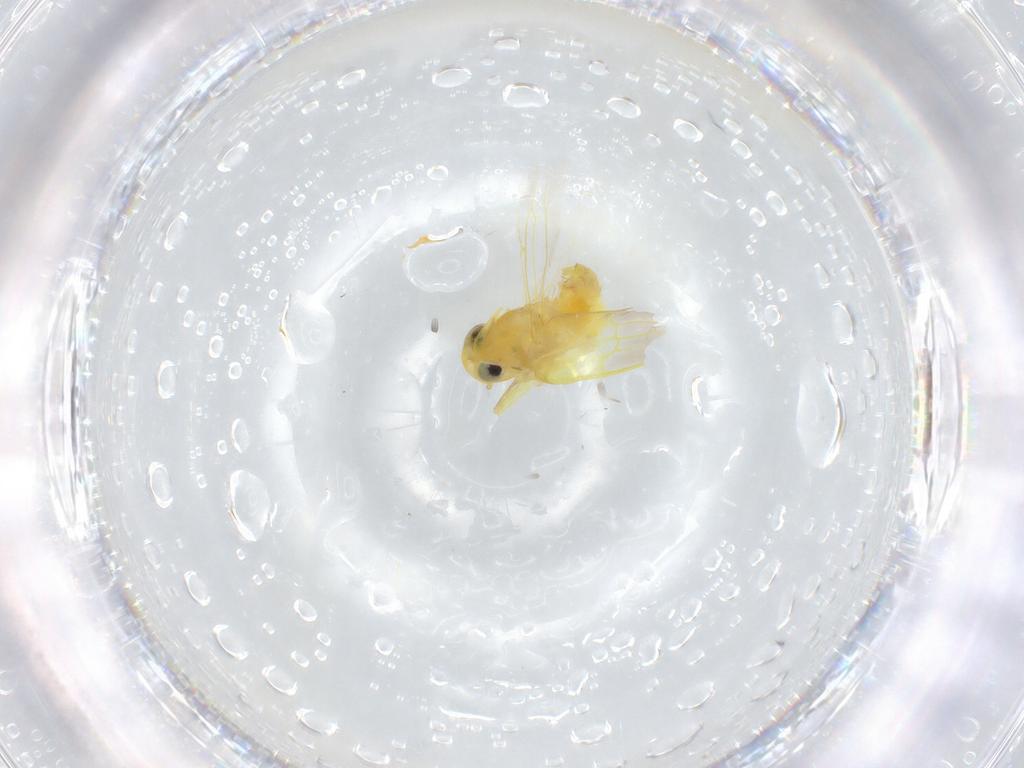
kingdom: Animalia
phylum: Arthropoda
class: Insecta
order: Hemiptera
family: Cicadellidae
